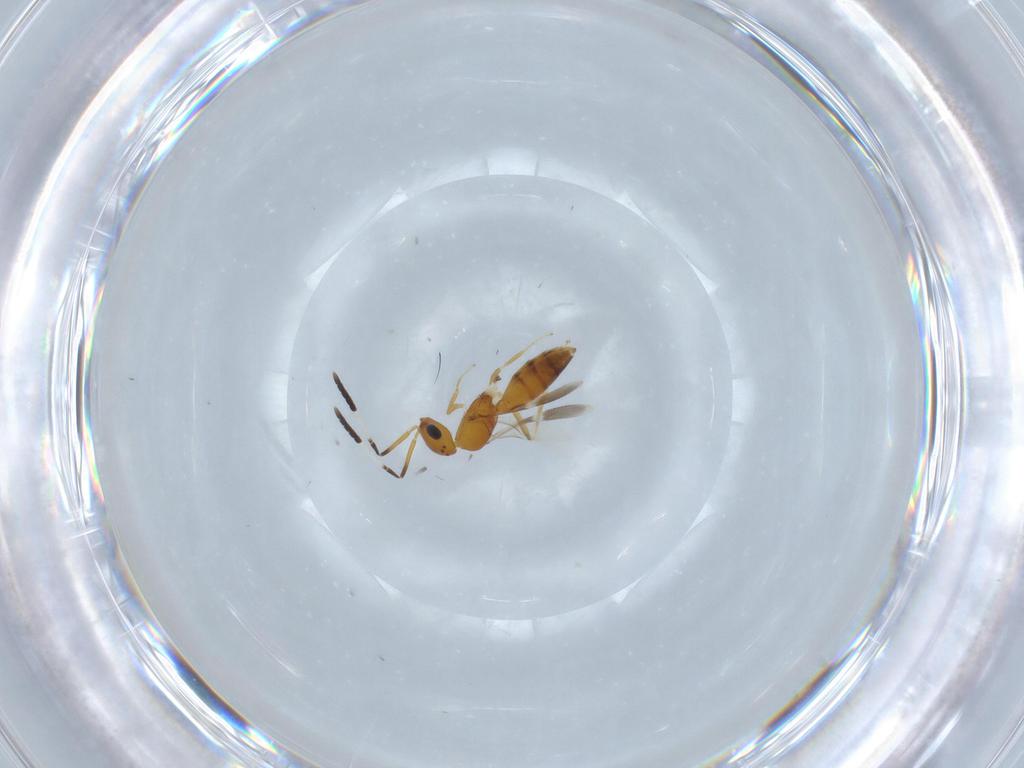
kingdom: Animalia
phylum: Arthropoda
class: Insecta
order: Hymenoptera
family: Scelionidae
